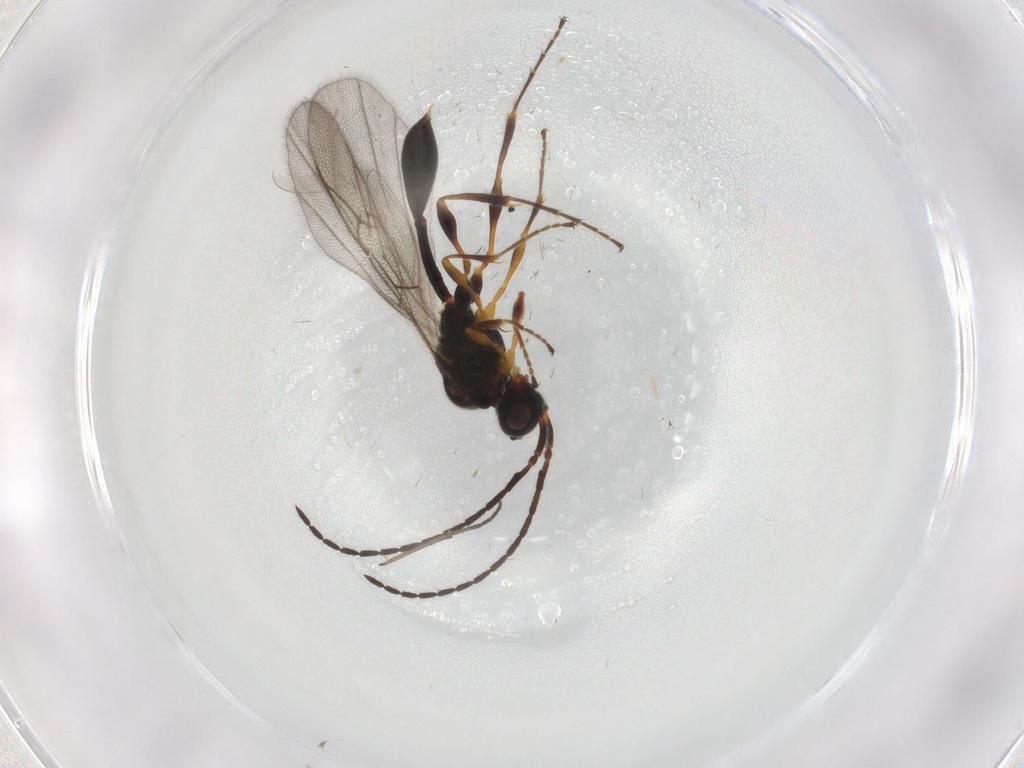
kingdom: Animalia
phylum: Arthropoda
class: Insecta
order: Hymenoptera
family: Diapriidae
